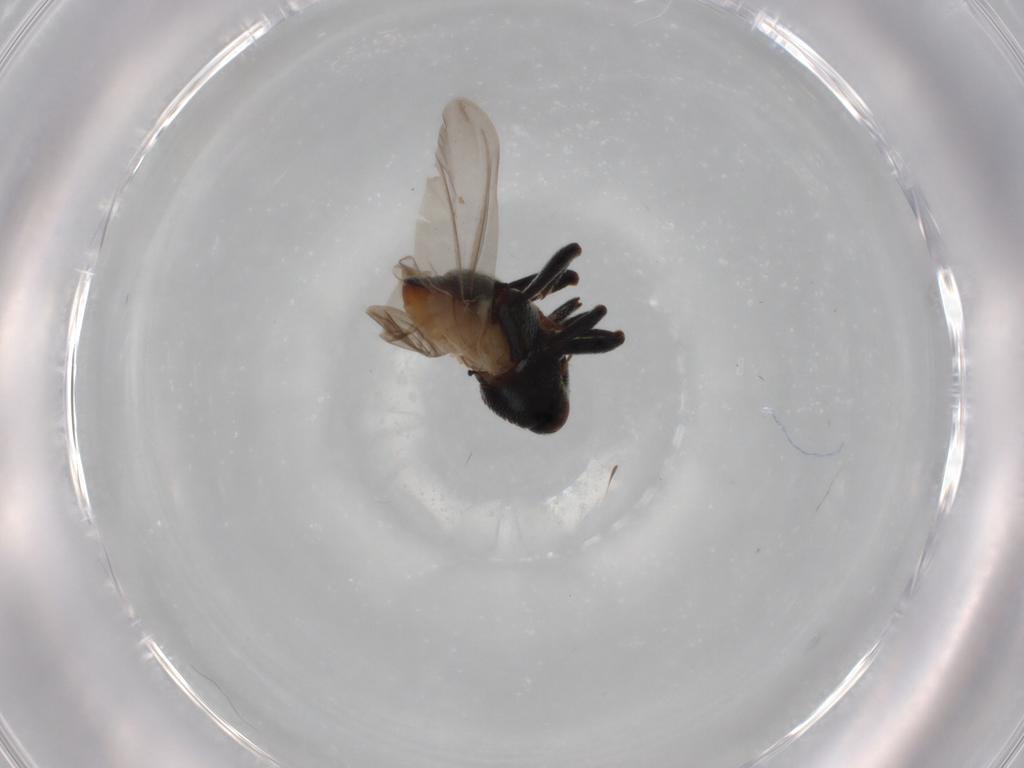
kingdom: Animalia
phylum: Arthropoda
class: Insecta
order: Coleoptera
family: Curculionidae
